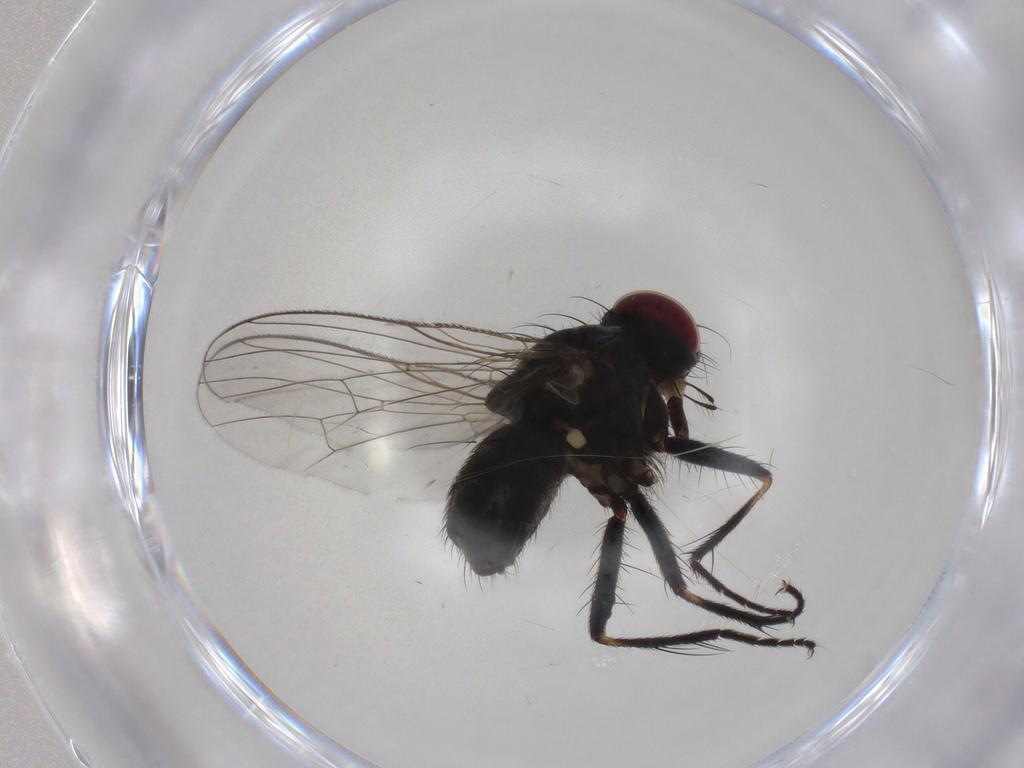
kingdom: Animalia
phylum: Arthropoda
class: Insecta
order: Diptera
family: Muscidae
